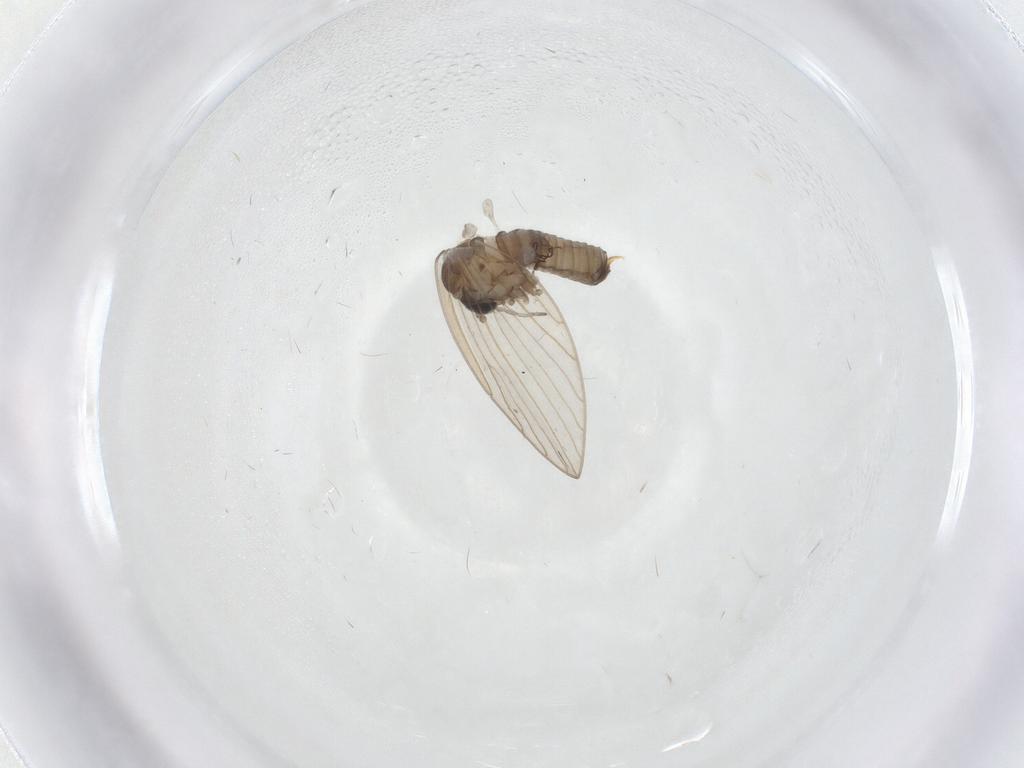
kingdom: Animalia
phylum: Arthropoda
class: Insecta
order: Diptera
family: Psychodidae
